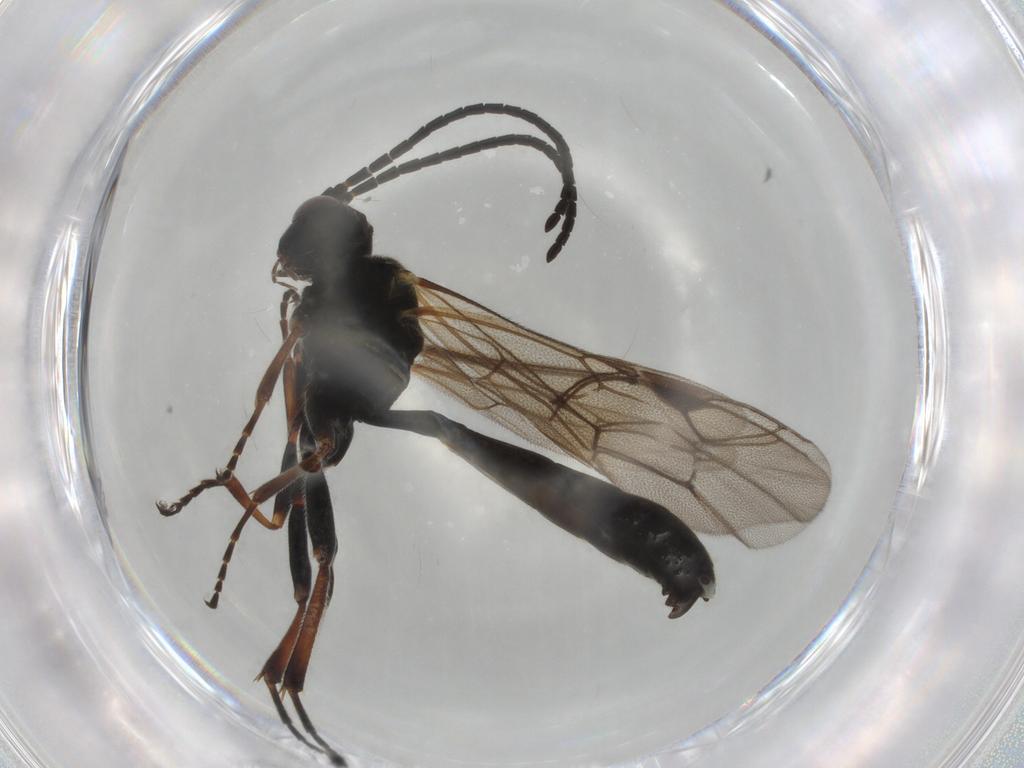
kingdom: Animalia
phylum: Arthropoda
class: Insecta
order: Hymenoptera
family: Ichneumonidae
